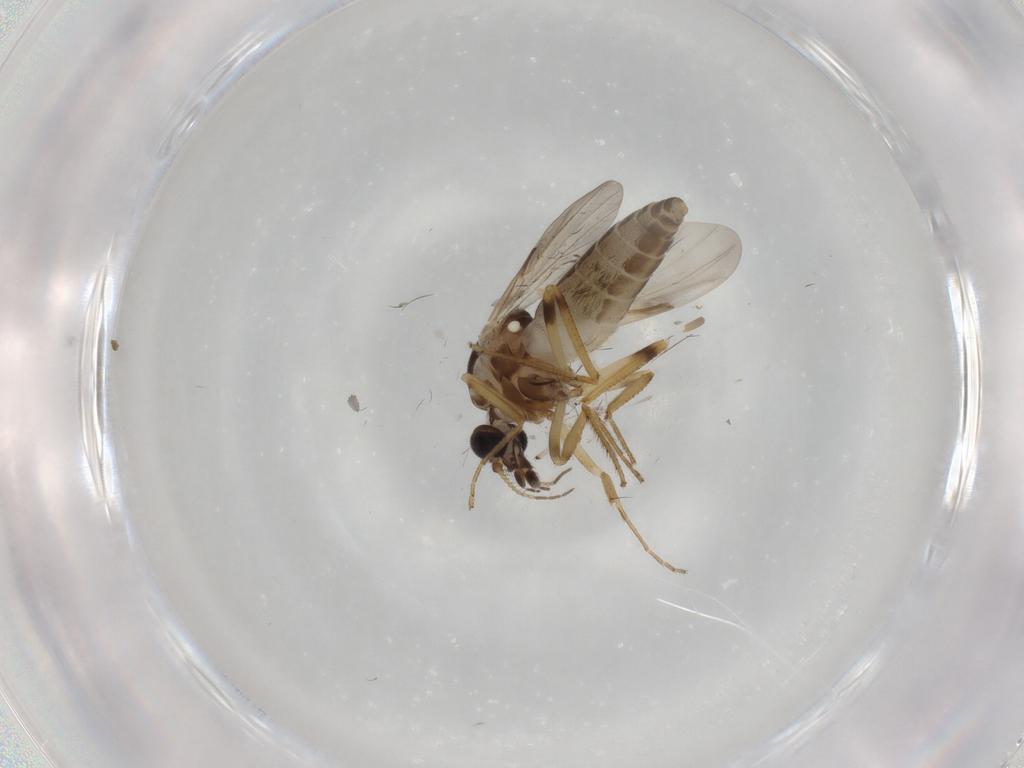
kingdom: Animalia
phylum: Arthropoda
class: Insecta
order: Diptera
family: Ceratopogonidae
